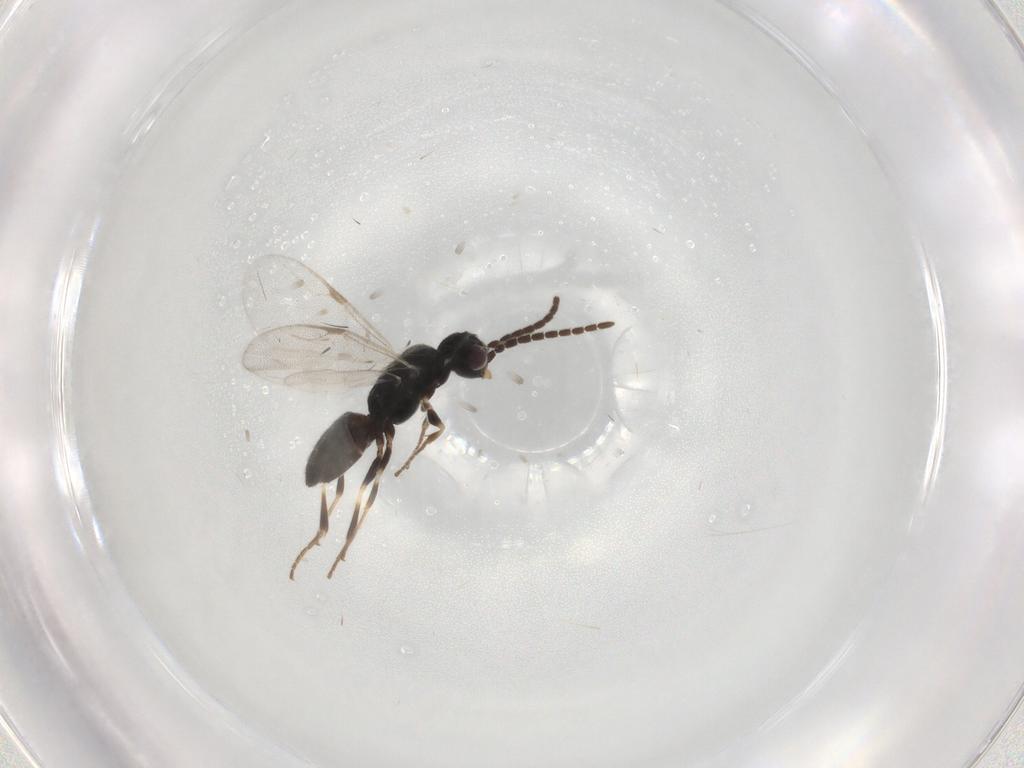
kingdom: Animalia
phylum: Arthropoda
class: Insecta
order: Hymenoptera
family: Dryinidae
